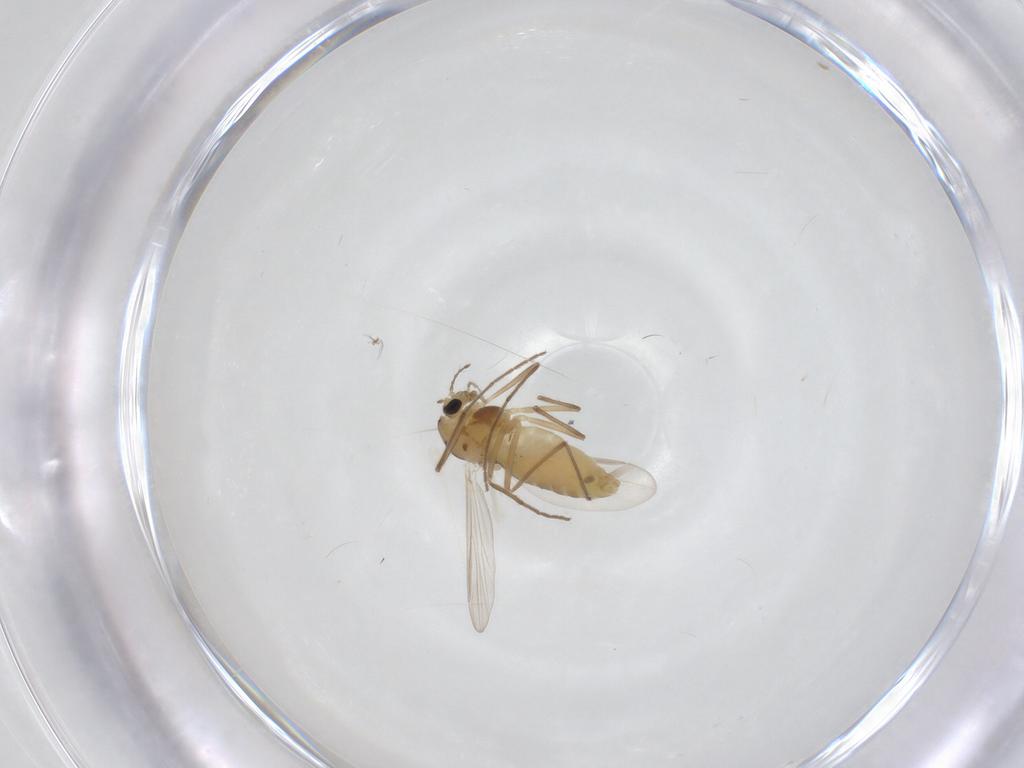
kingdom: Animalia
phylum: Arthropoda
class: Insecta
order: Diptera
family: Chironomidae
